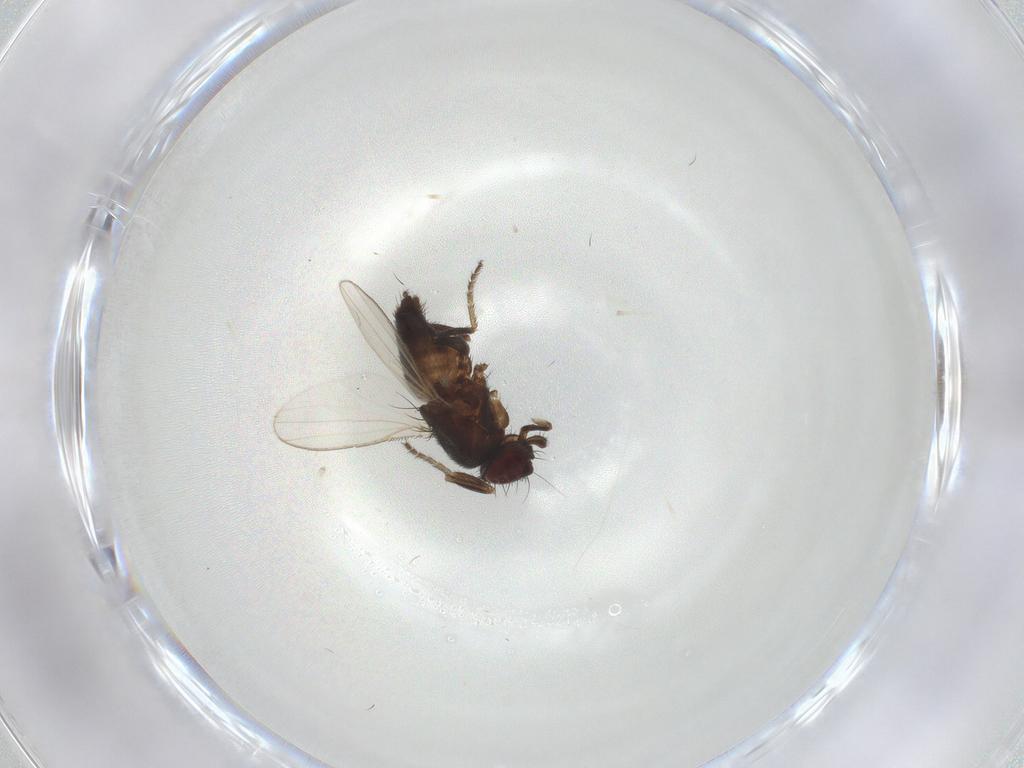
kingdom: Animalia
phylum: Arthropoda
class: Insecta
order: Diptera
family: Milichiidae
